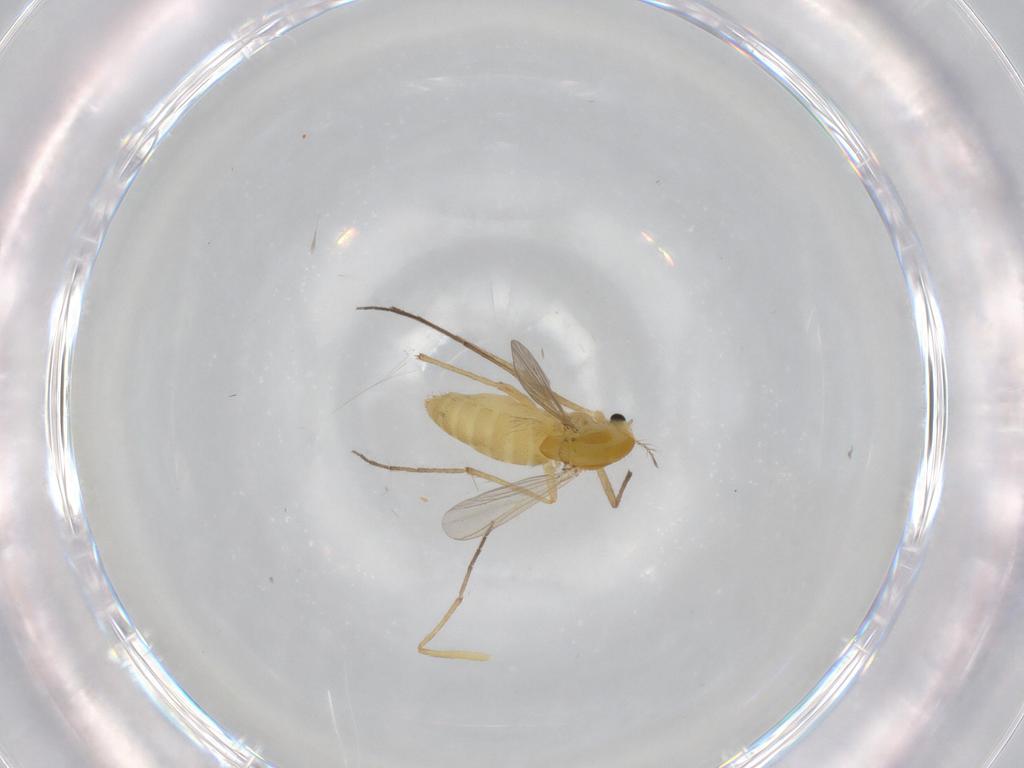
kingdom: Animalia
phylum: Arthropoda
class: Insecta
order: Diptera
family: Chironomidae
